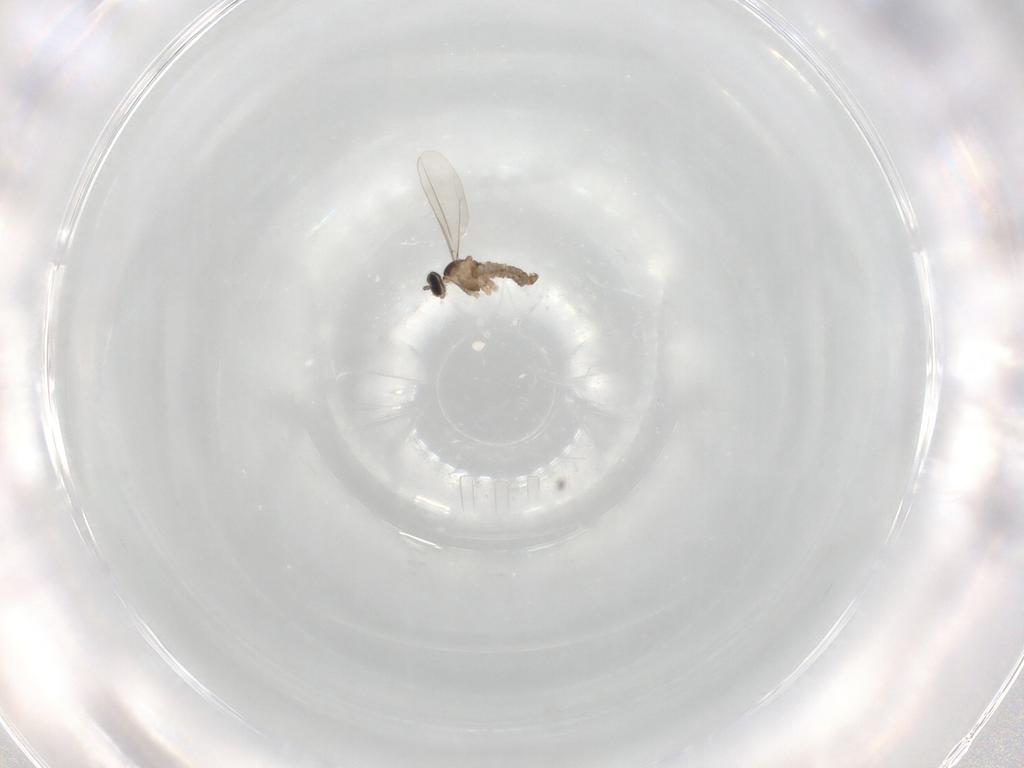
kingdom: Animalia
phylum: Arthropoda
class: Insecta
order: Diptera
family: Cecidomyiidae
